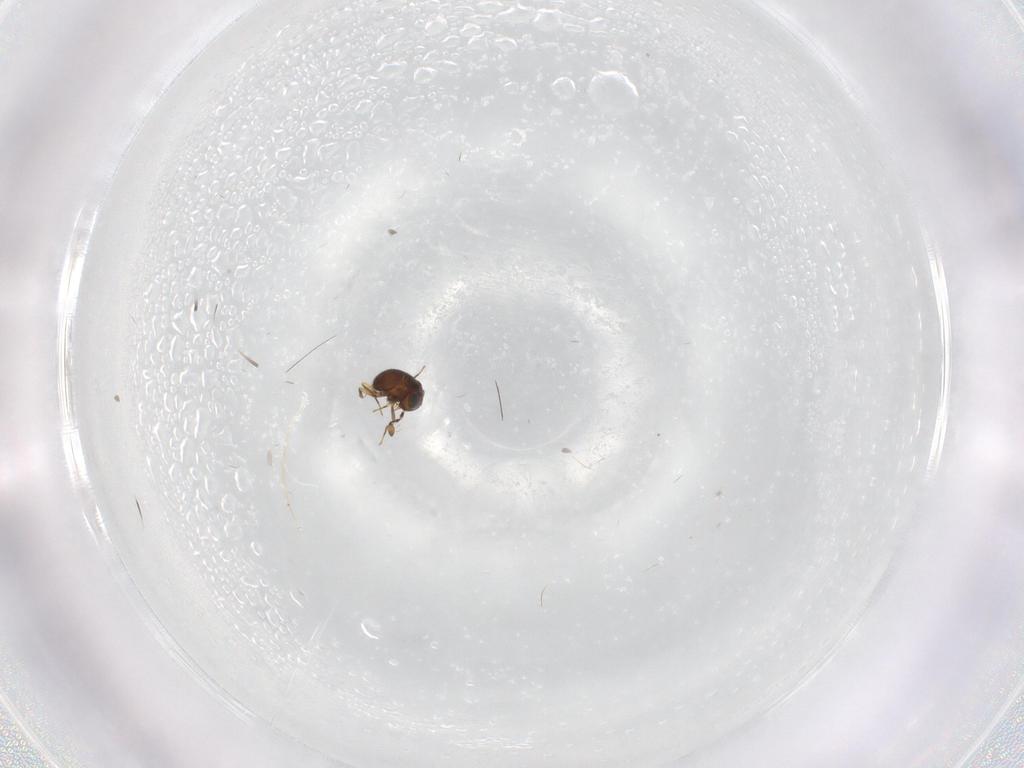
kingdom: Animalia
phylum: Arthropoda
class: Insecta
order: Hymenoptera
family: Scelionidae
